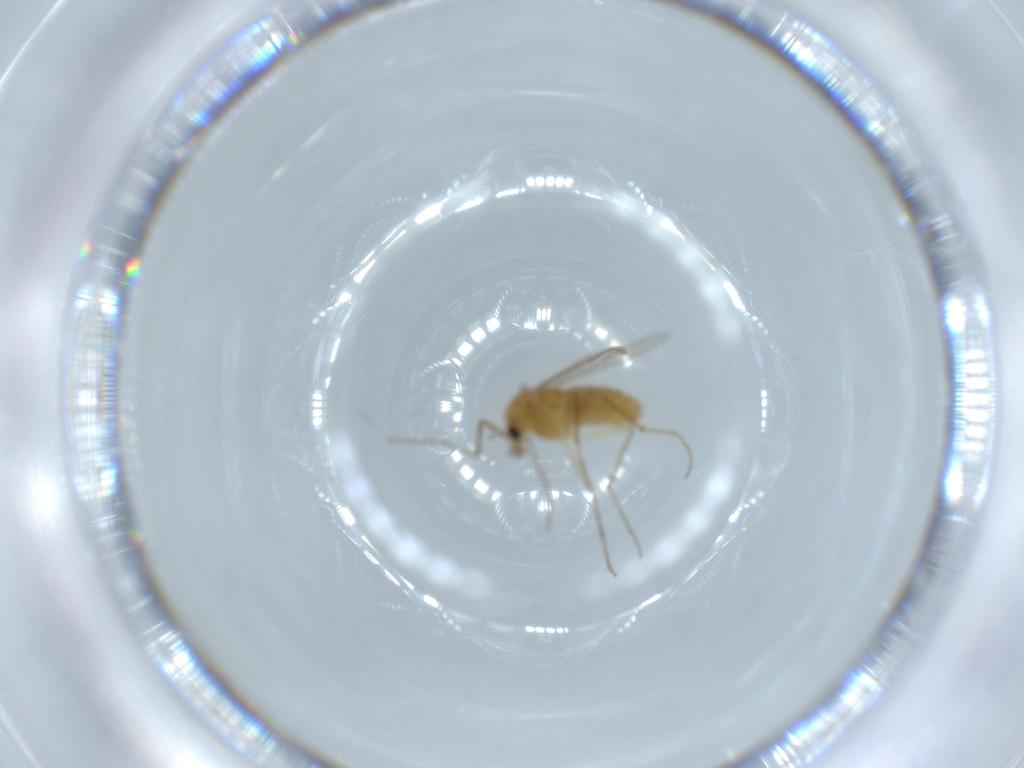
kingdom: Animalia
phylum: Arthropoda
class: Insecta
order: Diptera
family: Chironomidae
